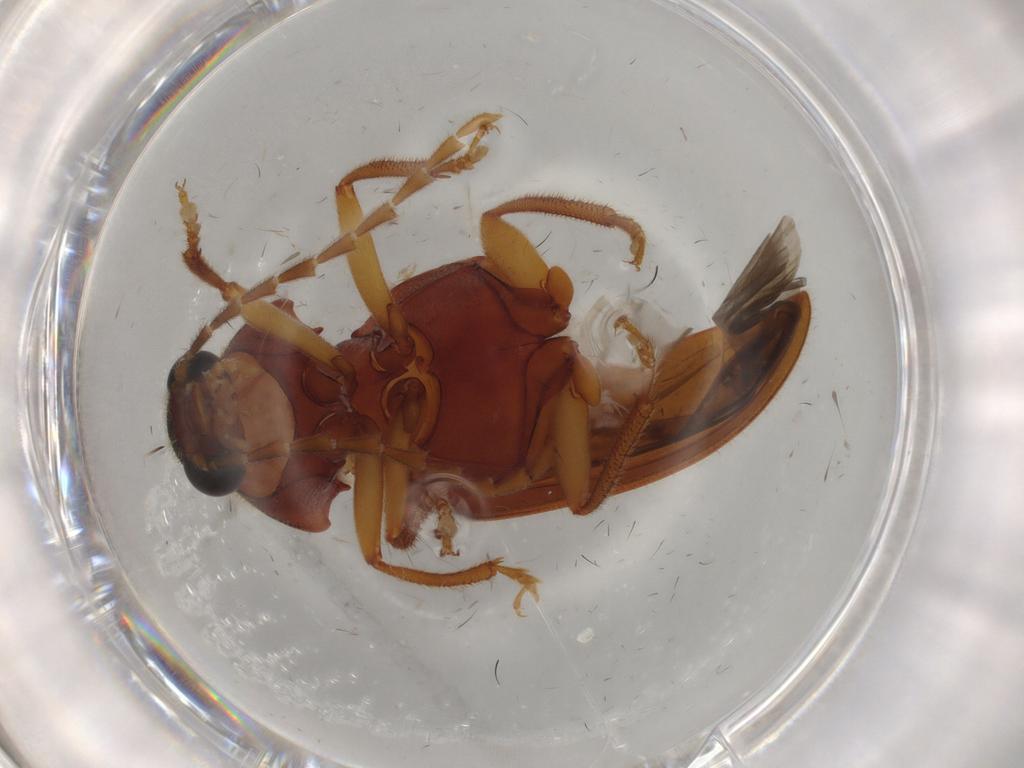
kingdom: Animalia
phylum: Arthropoda
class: Insecta
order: Coleoptera
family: Ptilodactylidae
